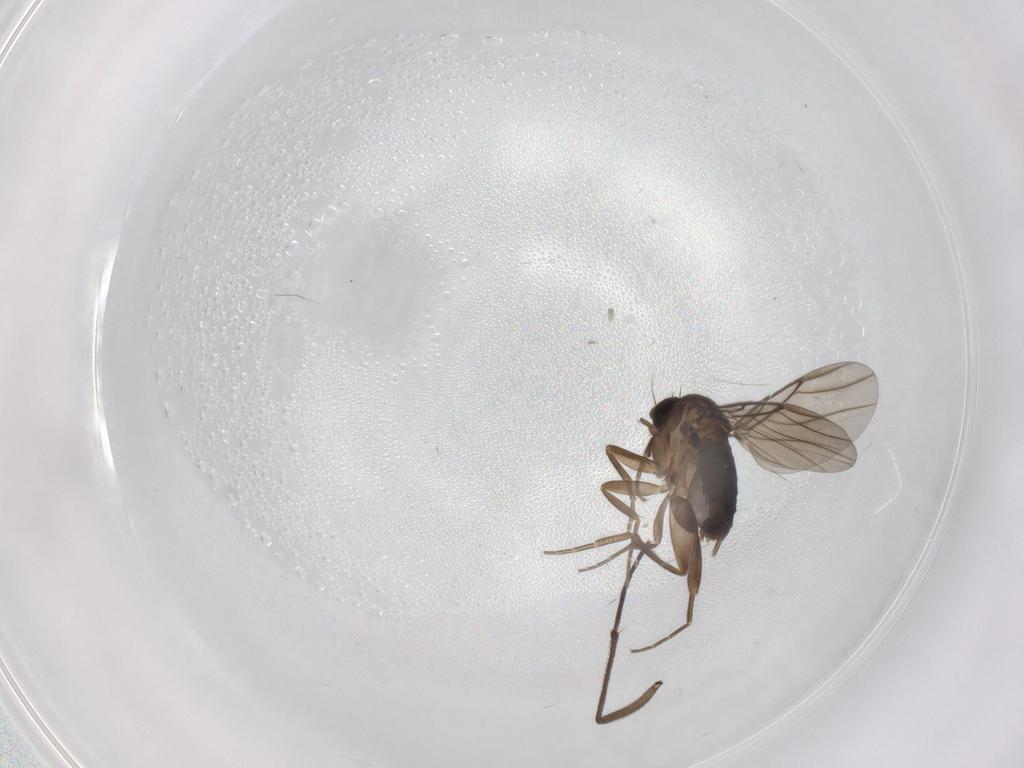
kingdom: Animalia
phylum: Arthropoda
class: Insecta
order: Diptera
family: Phoridae
